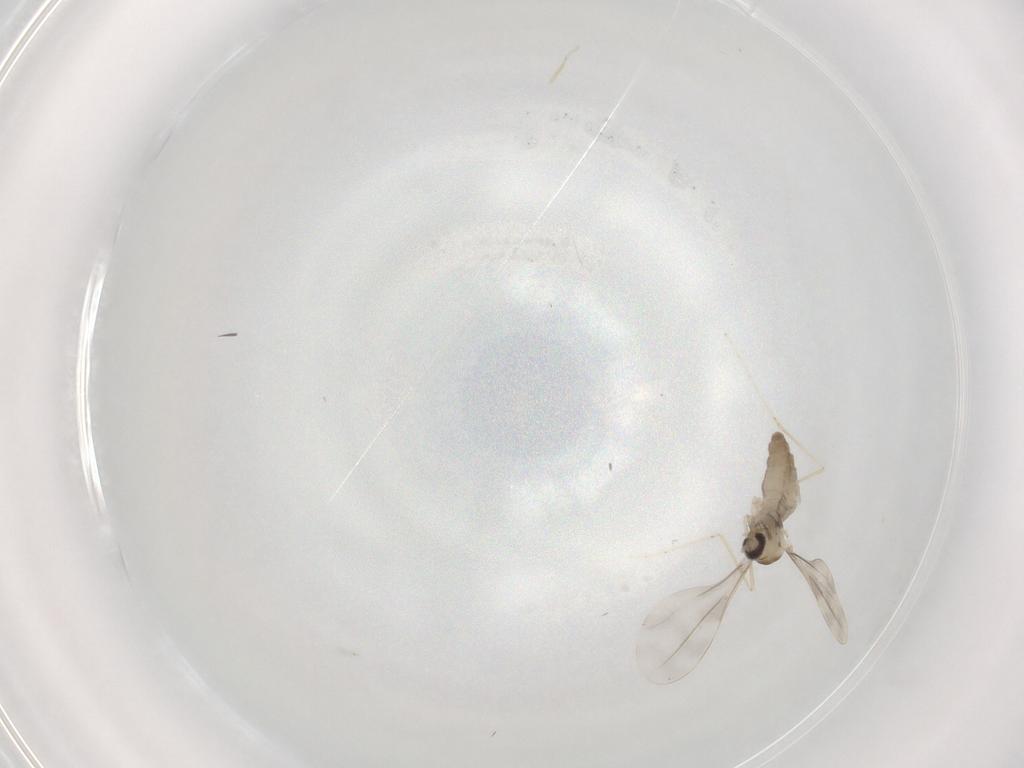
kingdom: Animalia
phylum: Arthropoda
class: Insecta
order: Diptera
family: Cecidomyiidae
